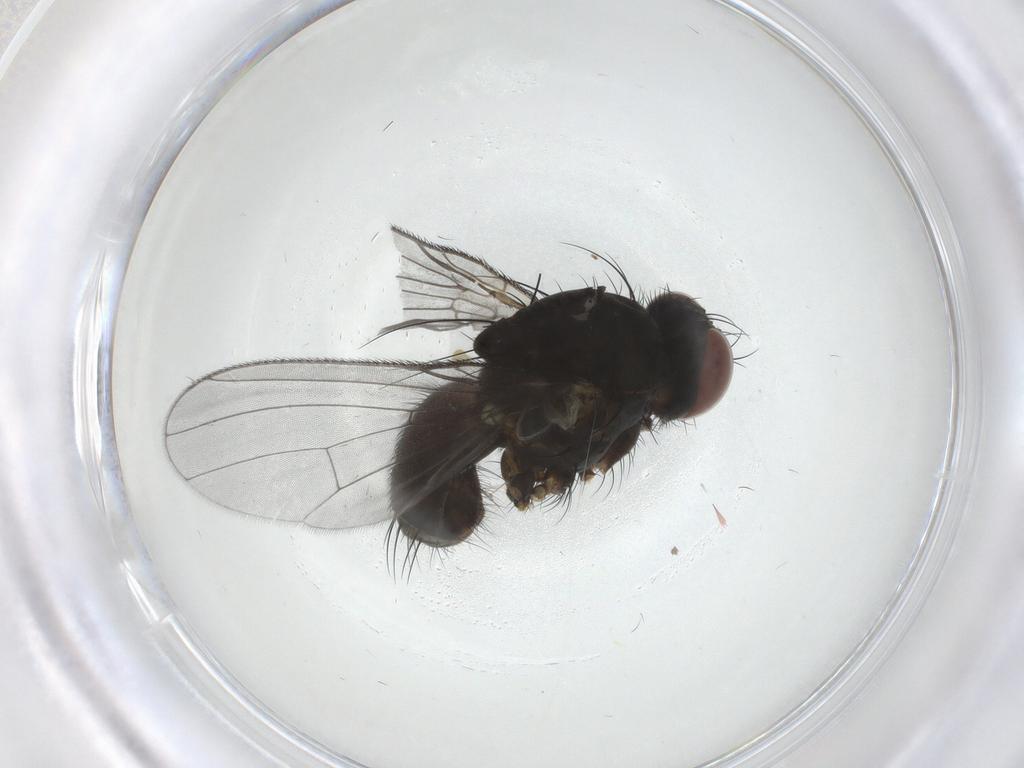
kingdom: Animalia
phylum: Arthropoda
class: Insecta
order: Diptera
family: Muscidae
